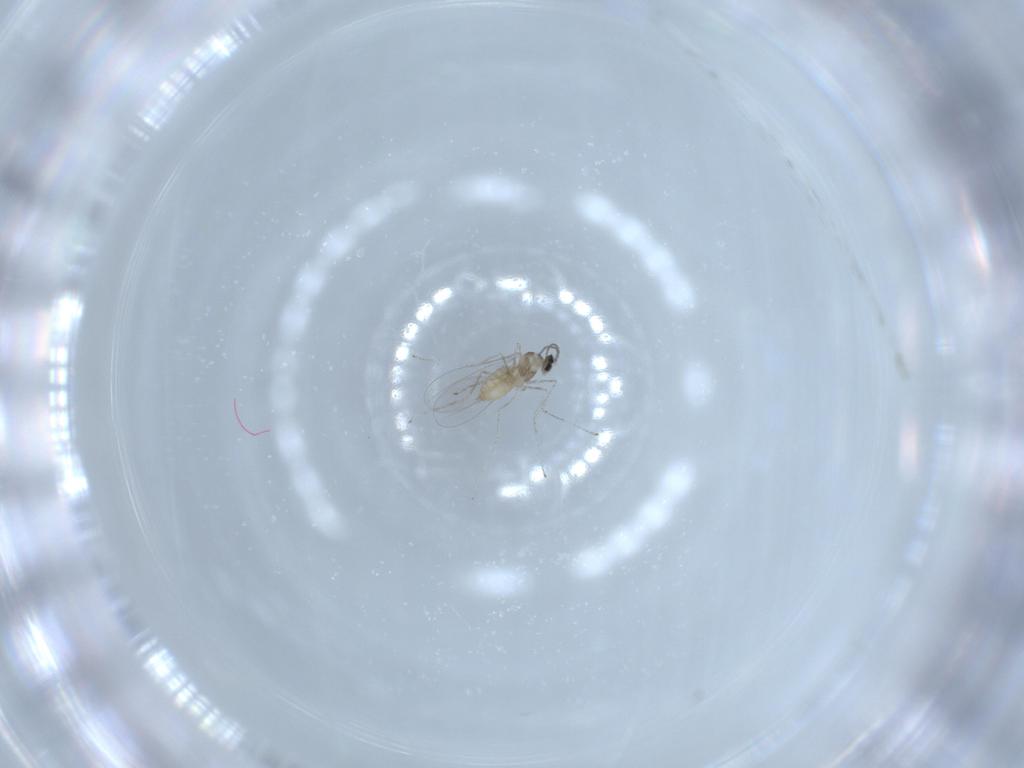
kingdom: Animalia
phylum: Arthropoda
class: Insecta
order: Diptera
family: Cecidomyiidae
